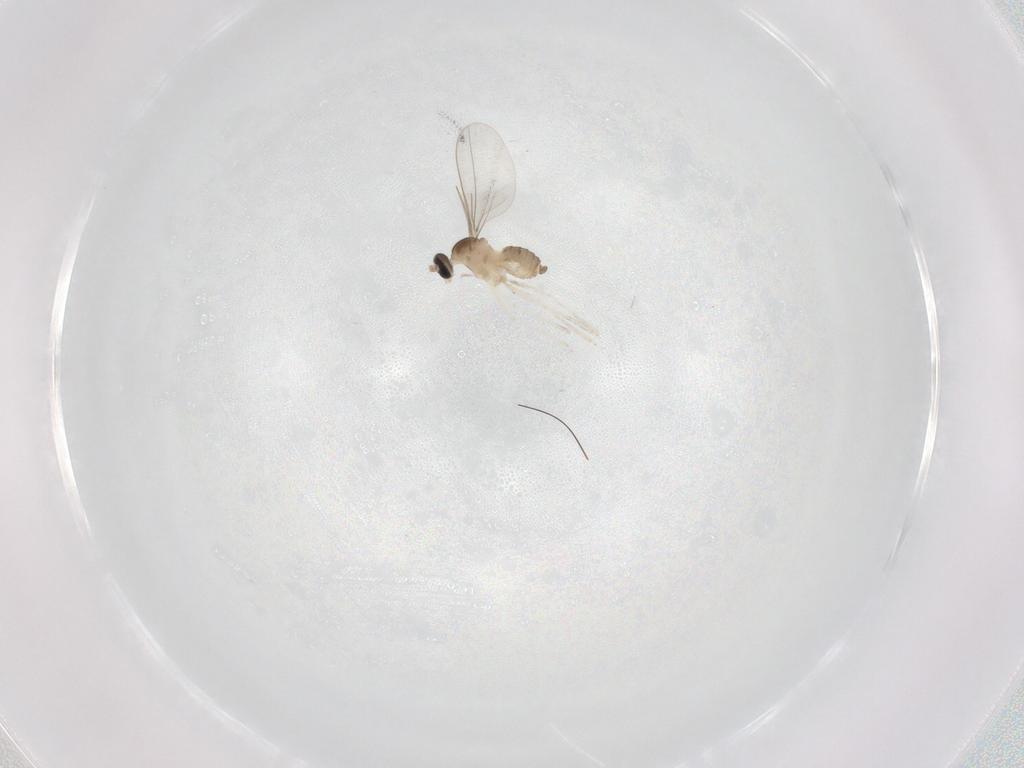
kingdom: Animalia
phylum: Arthropoda
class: Insecta
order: Diptera
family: Cecidomyiidae
